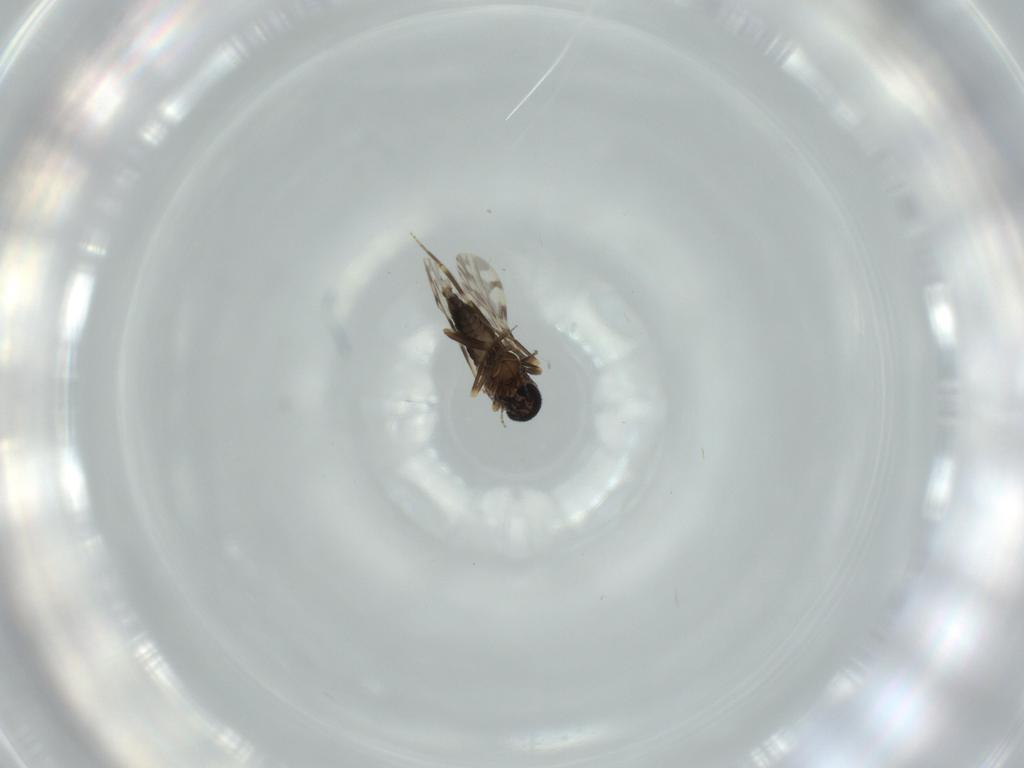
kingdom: Animalia
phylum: Arthropoda
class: Insecta
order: Diptera
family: Ceratopogonidae
